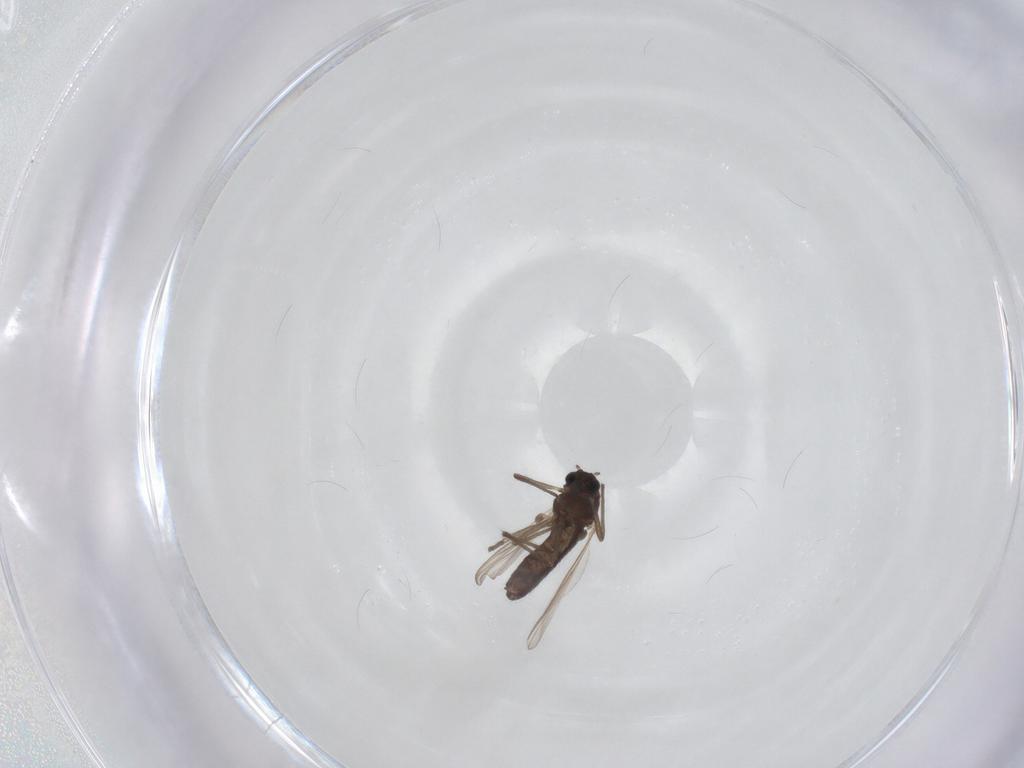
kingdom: Animalia
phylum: Arthropoda
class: Insecta
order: Diptera
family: Chironomidae
